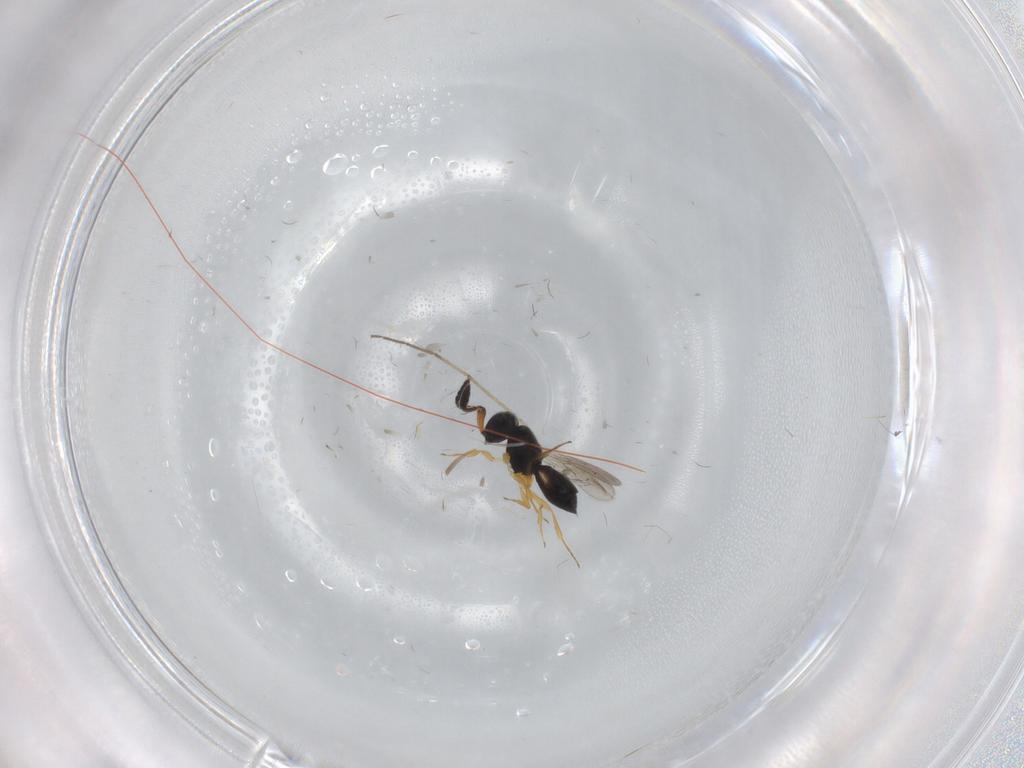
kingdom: Animalia
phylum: Arthropoda
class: Insecta
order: Hymenoptera
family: Scelionidae
